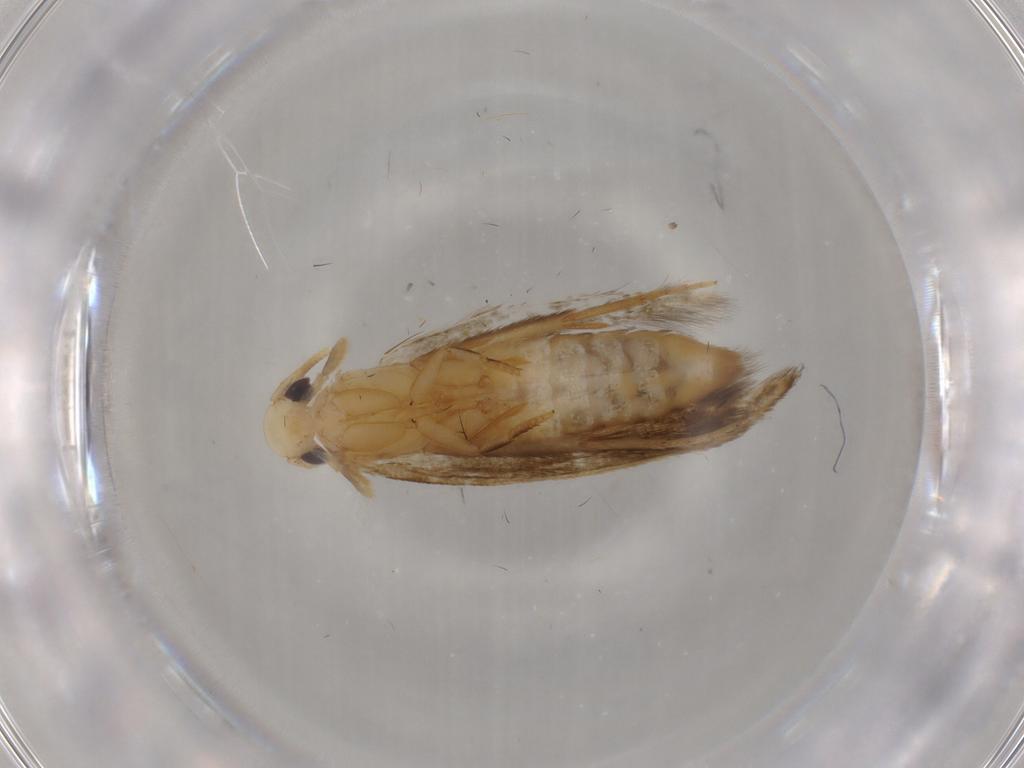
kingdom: Animalia
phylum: Arthropoda
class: Insecta
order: Lepidoptera
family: Tineidae
